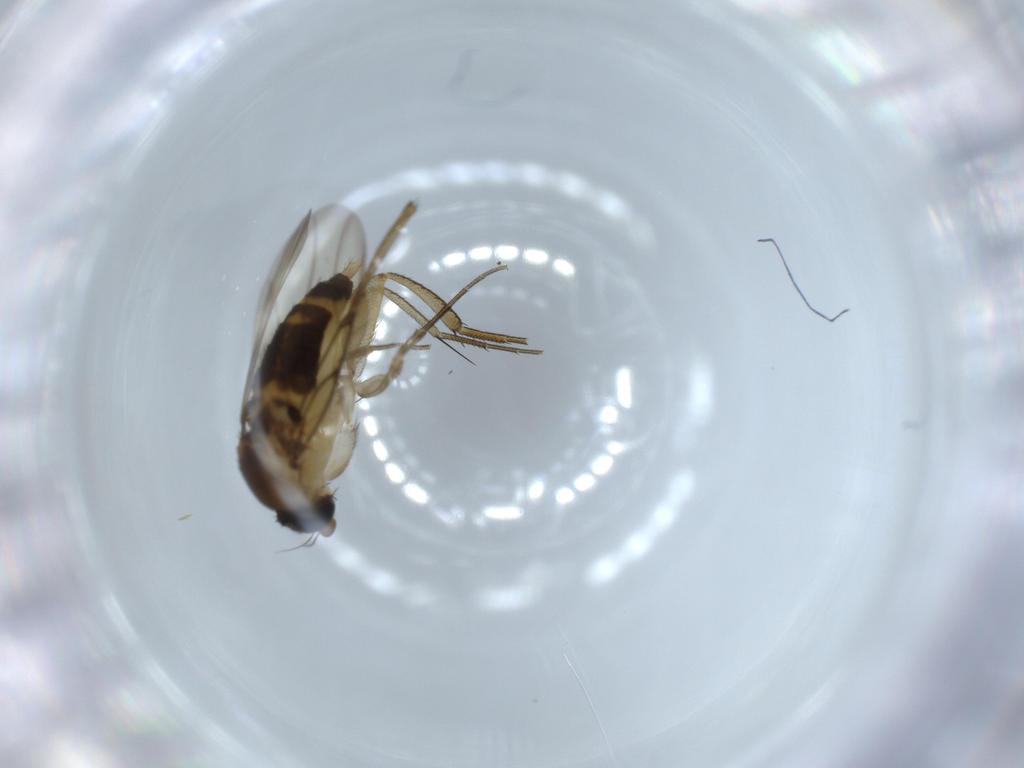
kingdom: Animalia
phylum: Arthropoda
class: Insecta
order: Diptera
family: Phoridae
